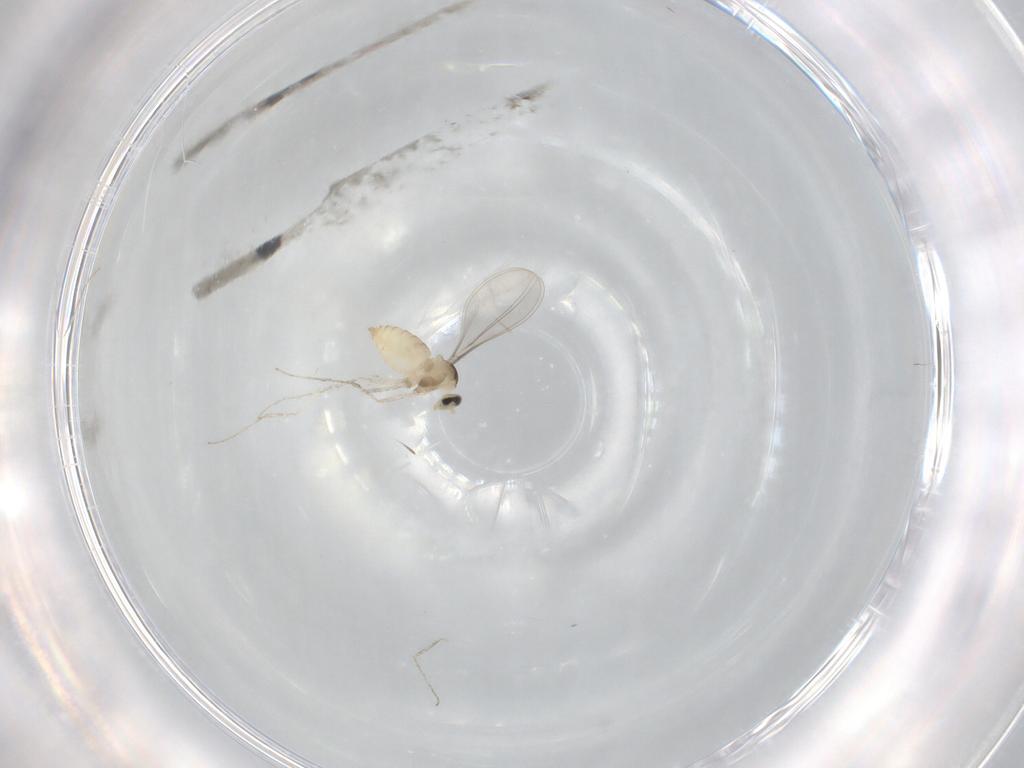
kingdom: Animalia
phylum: Arthropoda
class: Insecta
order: Diptera
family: Cecidomyiidae
